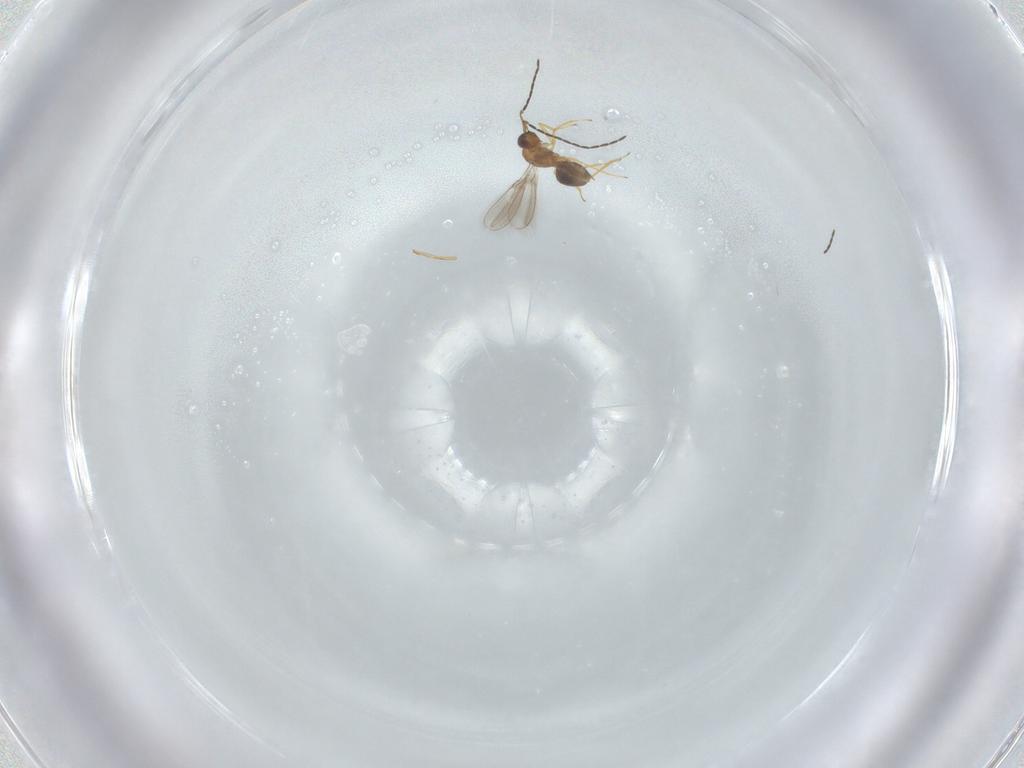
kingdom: Animalia
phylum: Arthropoda
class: Insecta
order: Hymenoptera
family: Mymaridae
